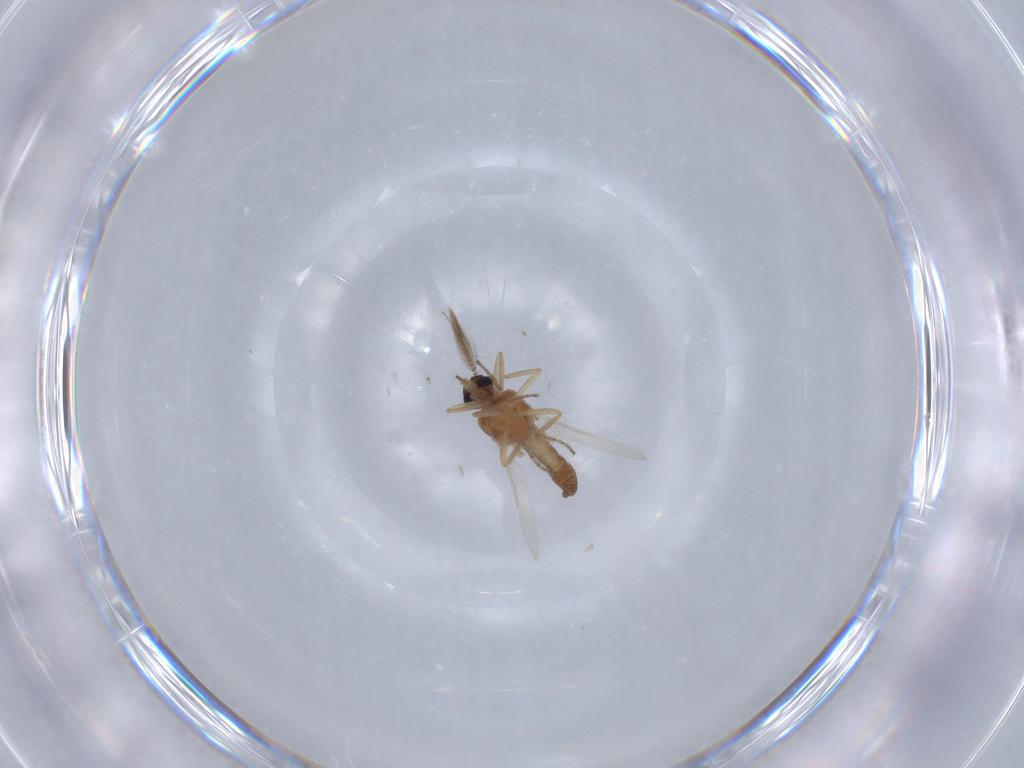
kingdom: Animalia
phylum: Arthropoda
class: Insecta
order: Diptera
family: Ceratopogonidae
